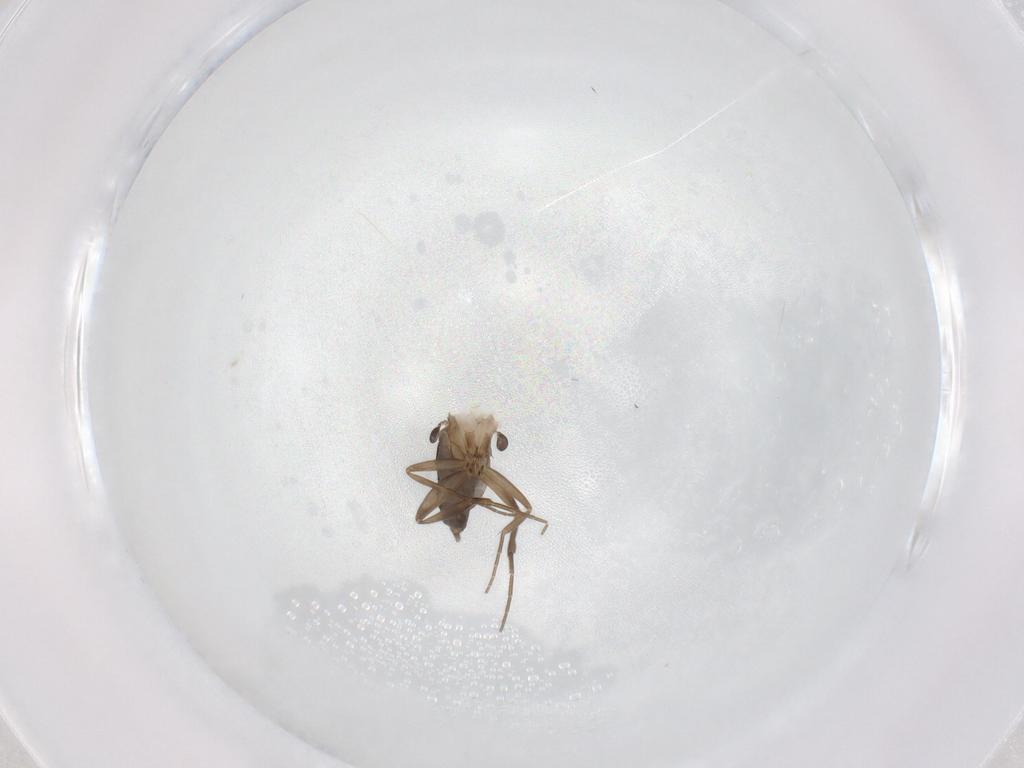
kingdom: Animalia
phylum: Arthropoda
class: Insecta
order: Diptera
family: Phoridae
